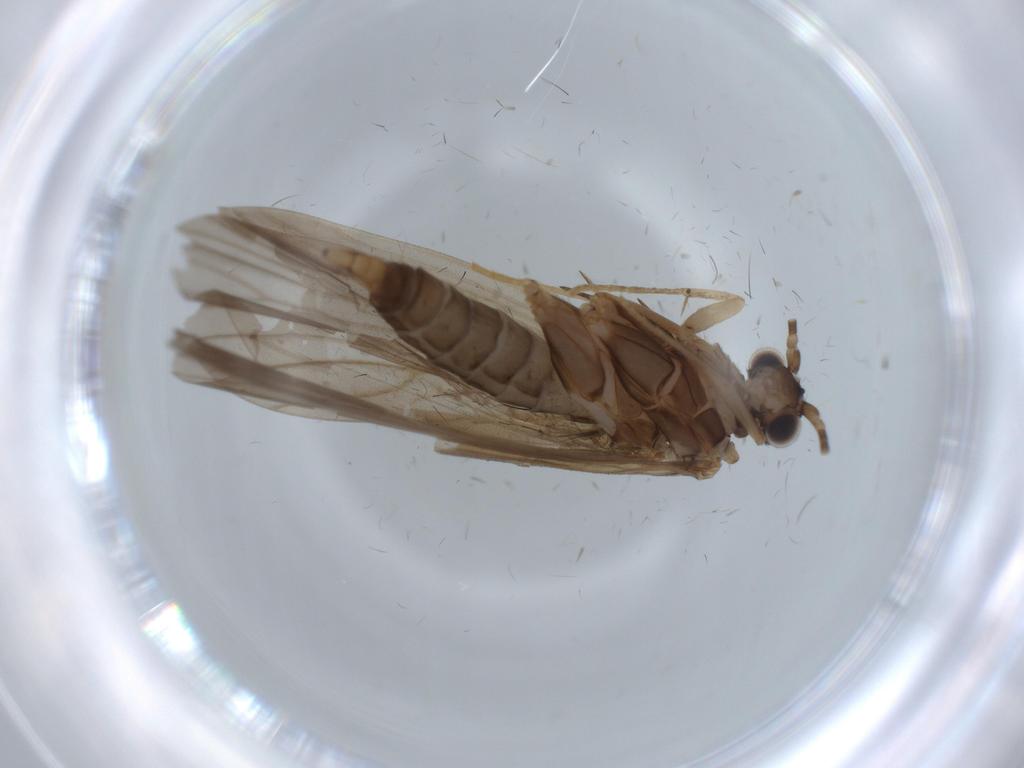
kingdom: Animalia
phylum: Arthropoda
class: Insecta
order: Trichoptera
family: Philopotamidae
